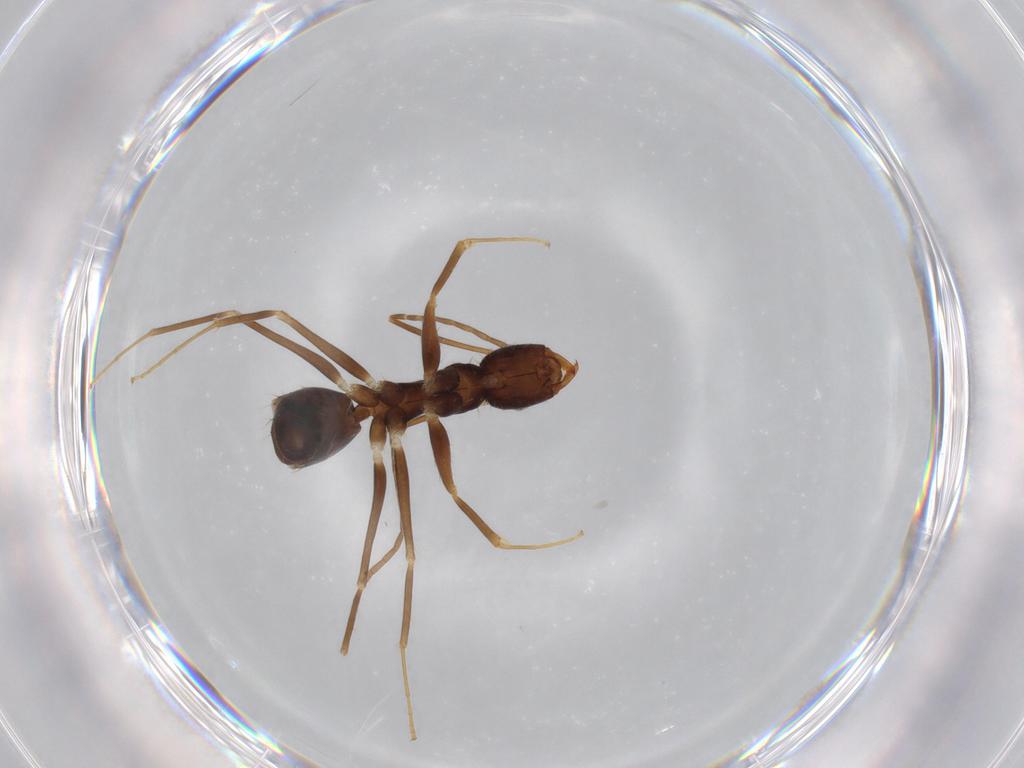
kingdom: Animalia
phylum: Arthropoda
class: Insecta
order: Hymenoptera
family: Formicidae
